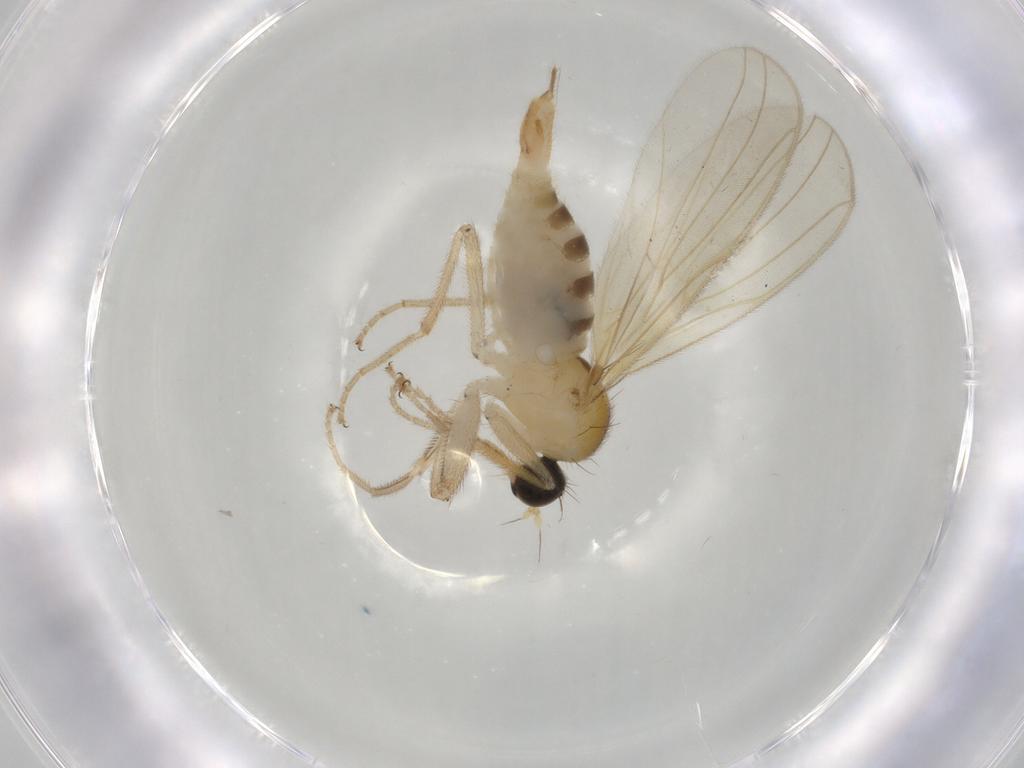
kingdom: Animalia
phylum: Arthropoda
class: Insecta
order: Diptera
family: Hybotidae
